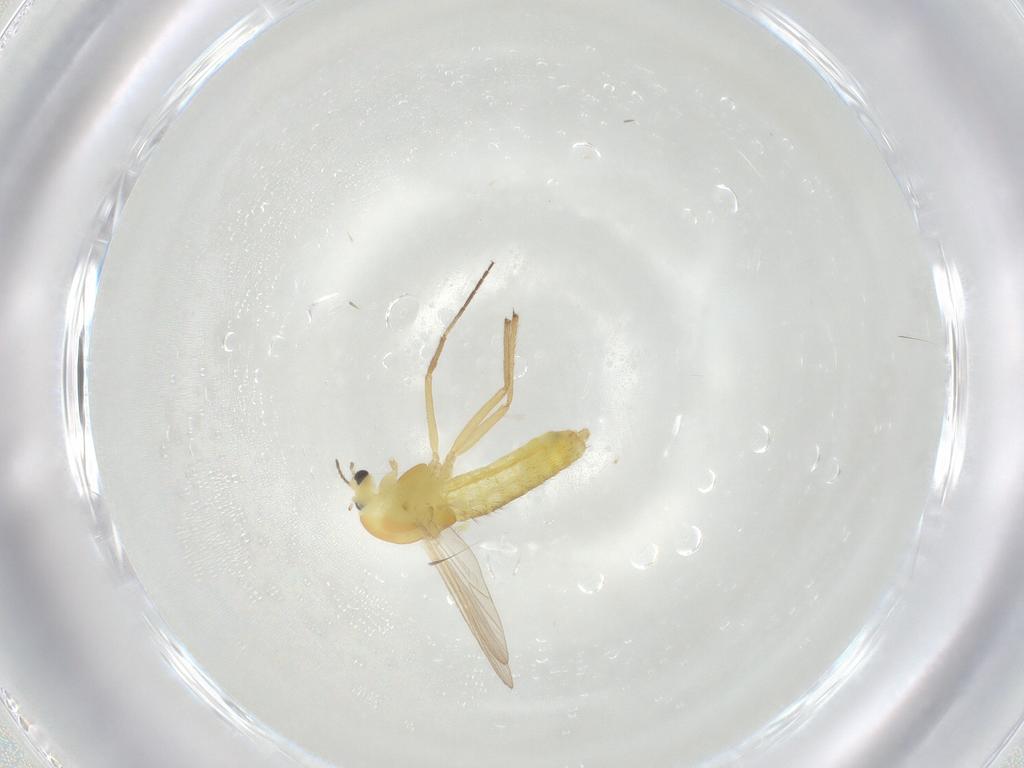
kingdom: Animalia
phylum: Arthropoda
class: Insecta
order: Diptera
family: Chironomidae
